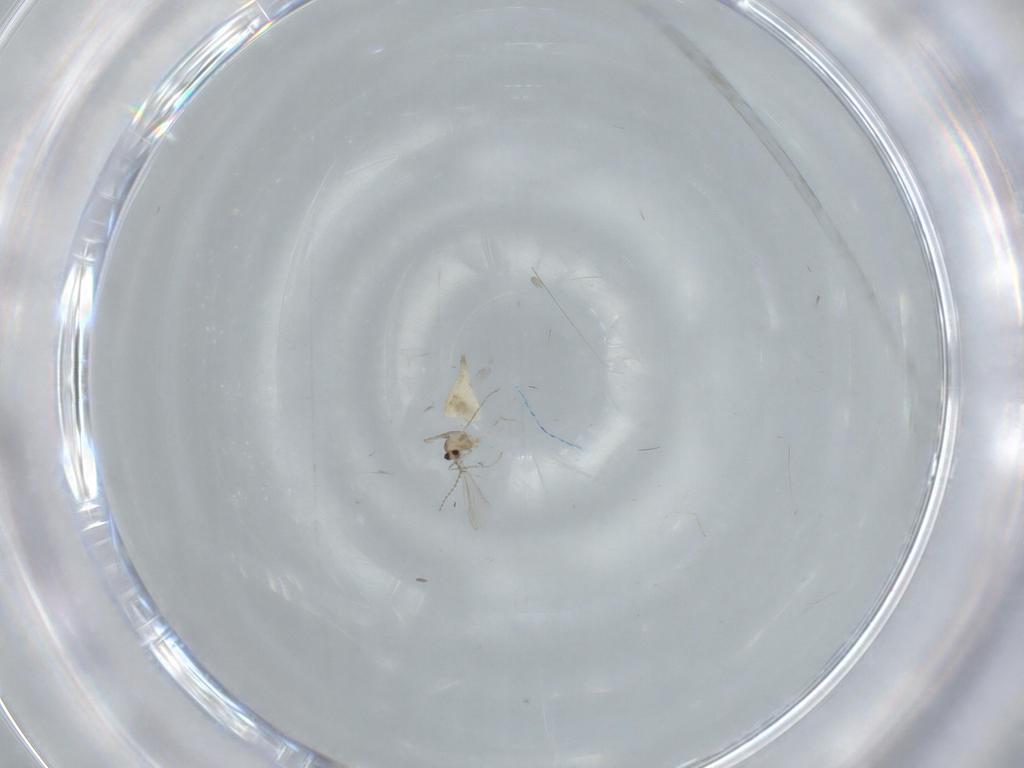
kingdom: Animalia
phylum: Arthropoda
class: Insecta
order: Diptera
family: Cecidomyiidae
